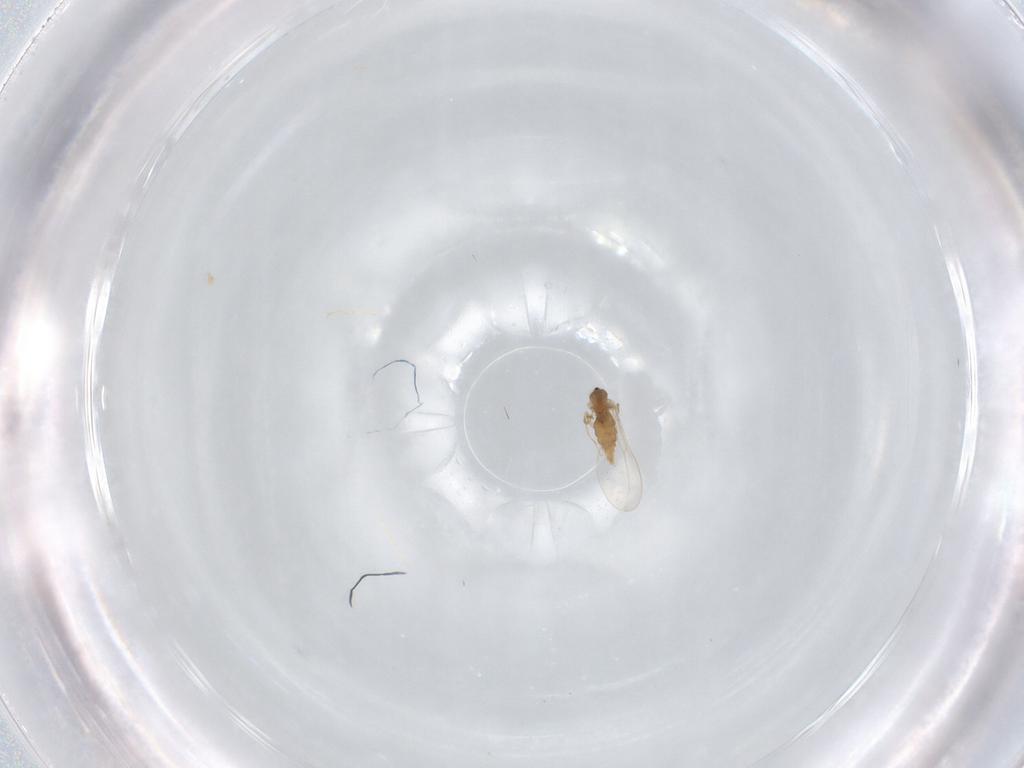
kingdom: Animalia
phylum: Arthropoda
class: Insecta
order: Diptera
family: Cecidomyiidae
